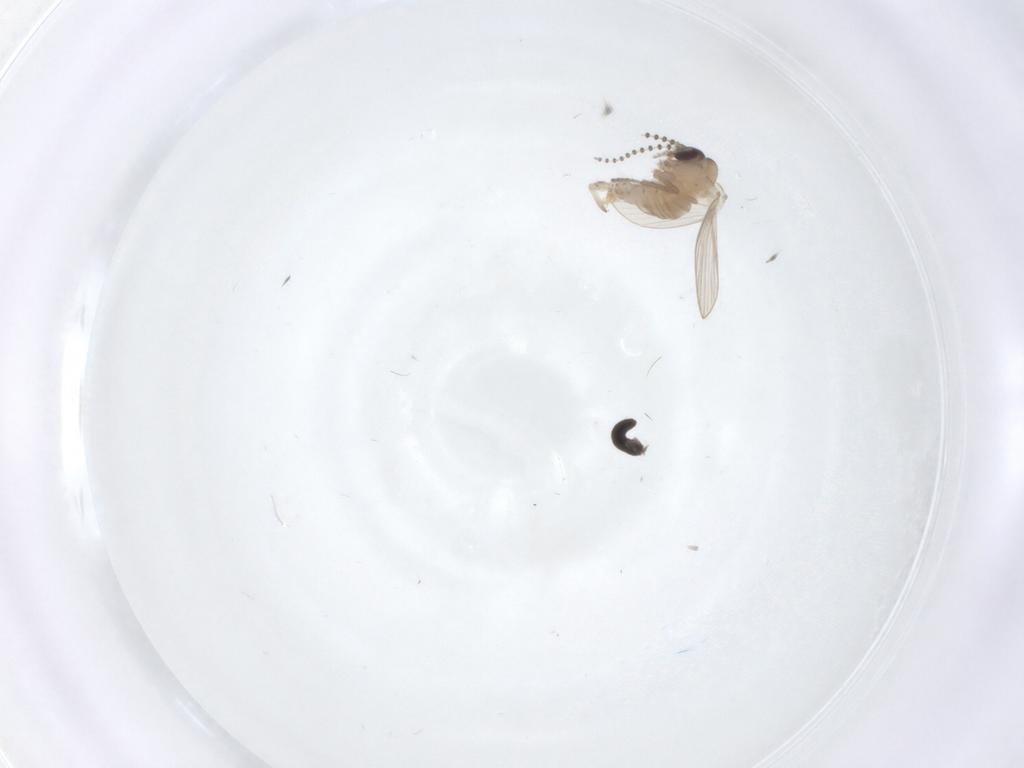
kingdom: Animalia
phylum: Arthropoda
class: Insecta
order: Diptera
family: Psychodidae
